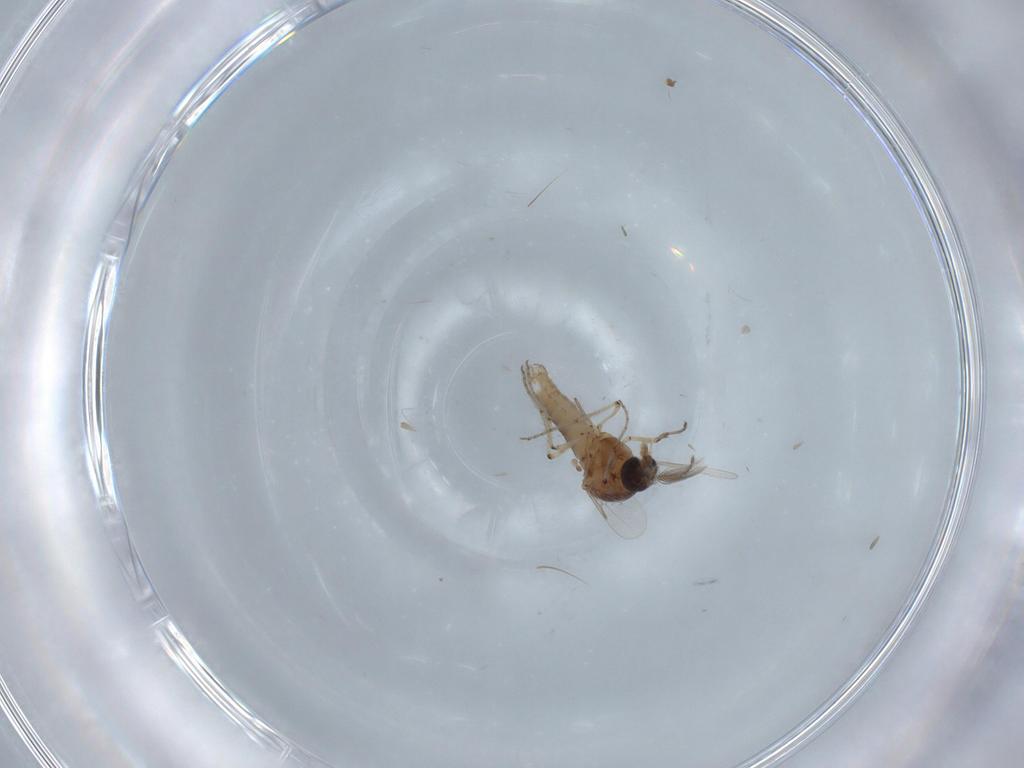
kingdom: Animalia
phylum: Arthropoda
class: Insecta
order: Diptera
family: Ceratopogonidae
